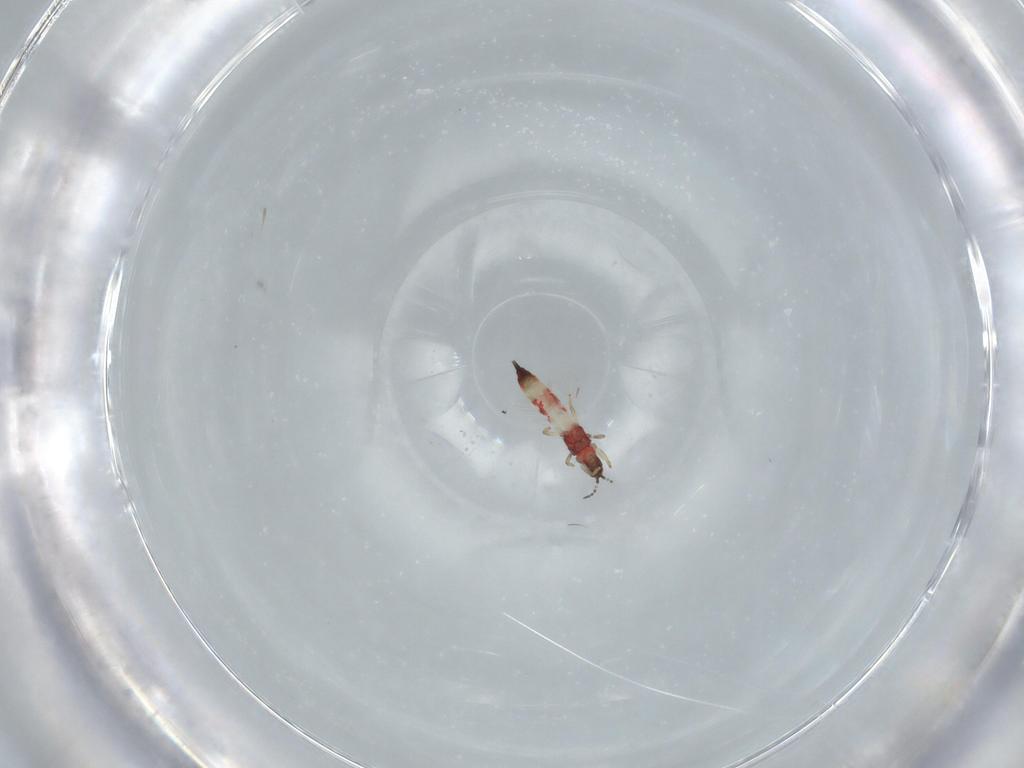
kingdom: Animalia
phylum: Arthropoda
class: Insecta
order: Thysanoptera
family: Phlaeothripidae
